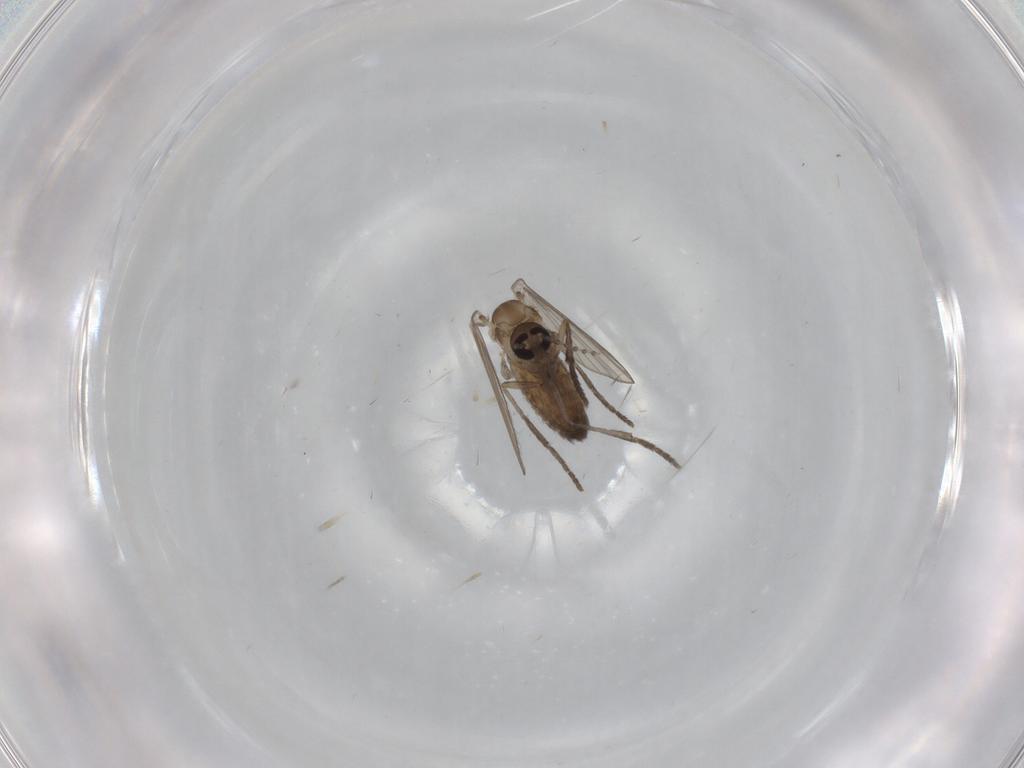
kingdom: Animalia
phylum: Arthropoda
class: Insecta
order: Diptera
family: Psychodidae
